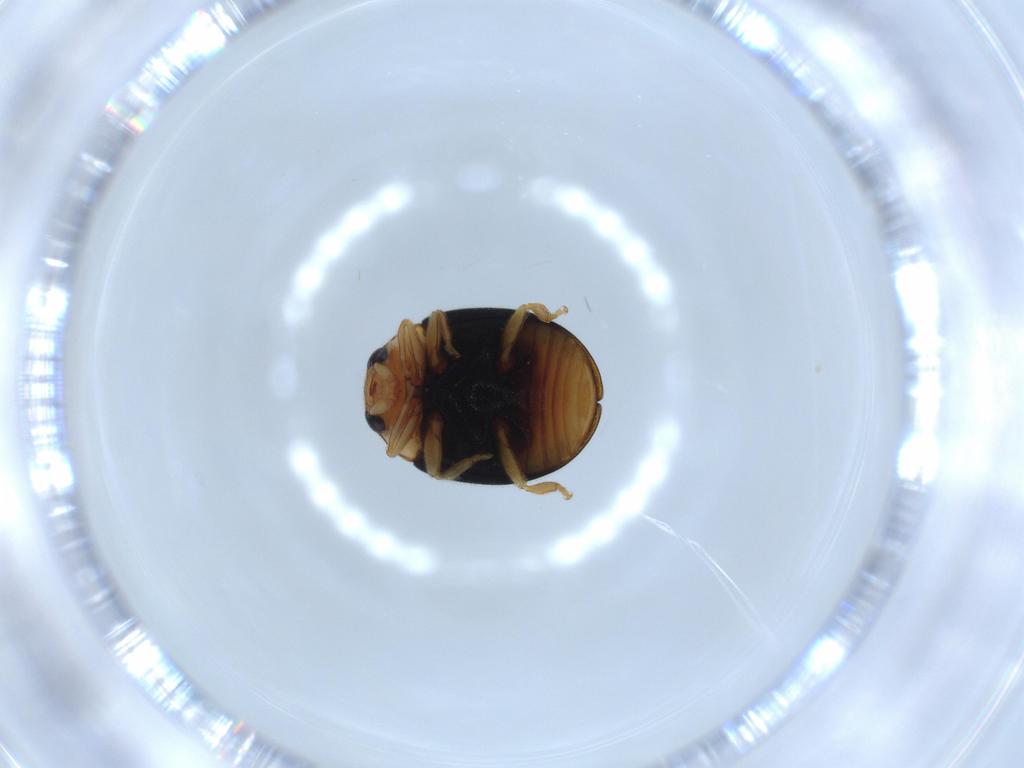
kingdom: Animalia
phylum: Arthropoda
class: Insecta
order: Coleoptera
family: Coccinellidae
